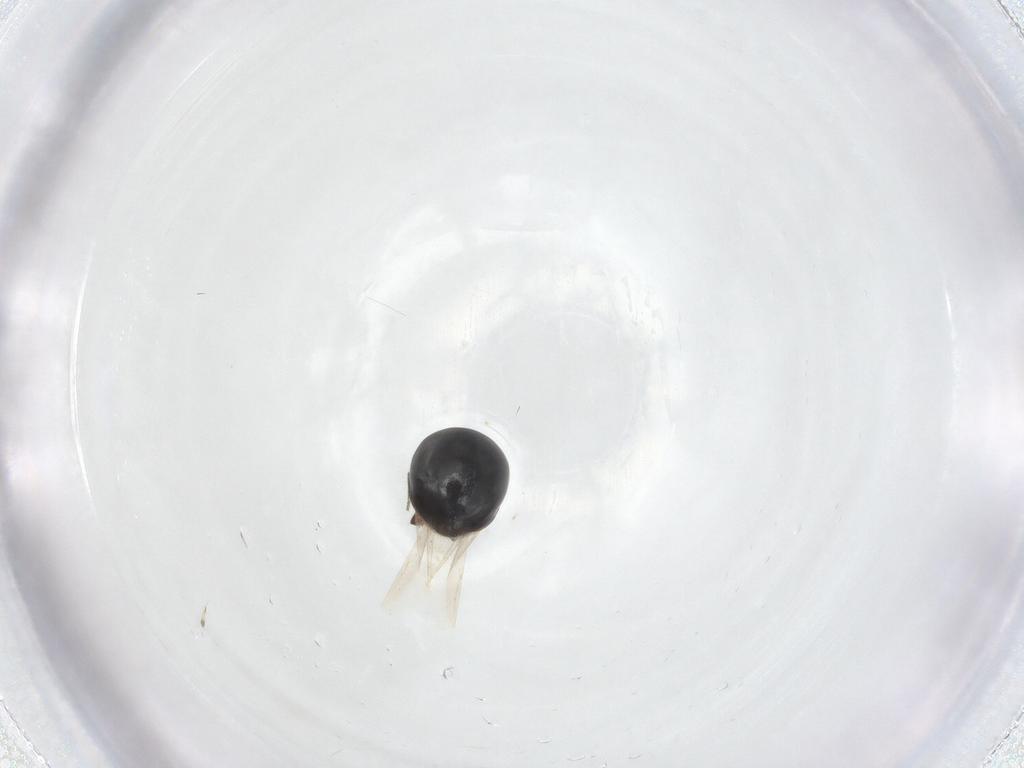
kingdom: Animalia
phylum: Arthropoda
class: Insecta
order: Coleoptera
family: Cybocephalidae
